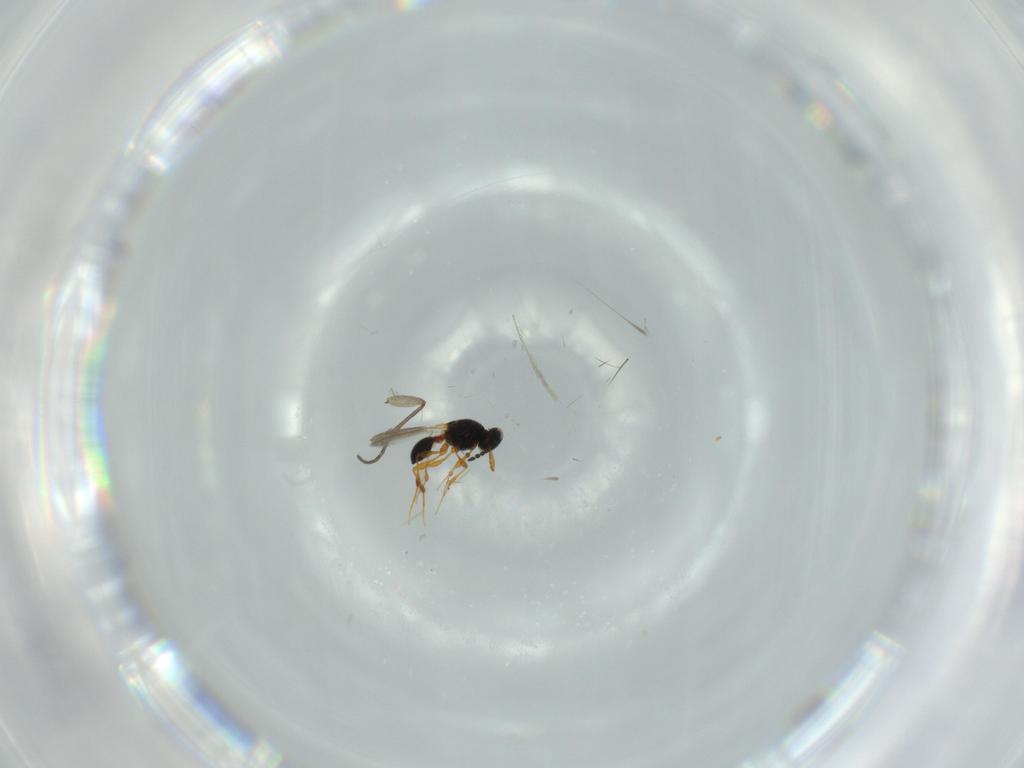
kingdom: Animalia
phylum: Arthropoda
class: Insecta
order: Hymenoptera
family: Platygastridae
